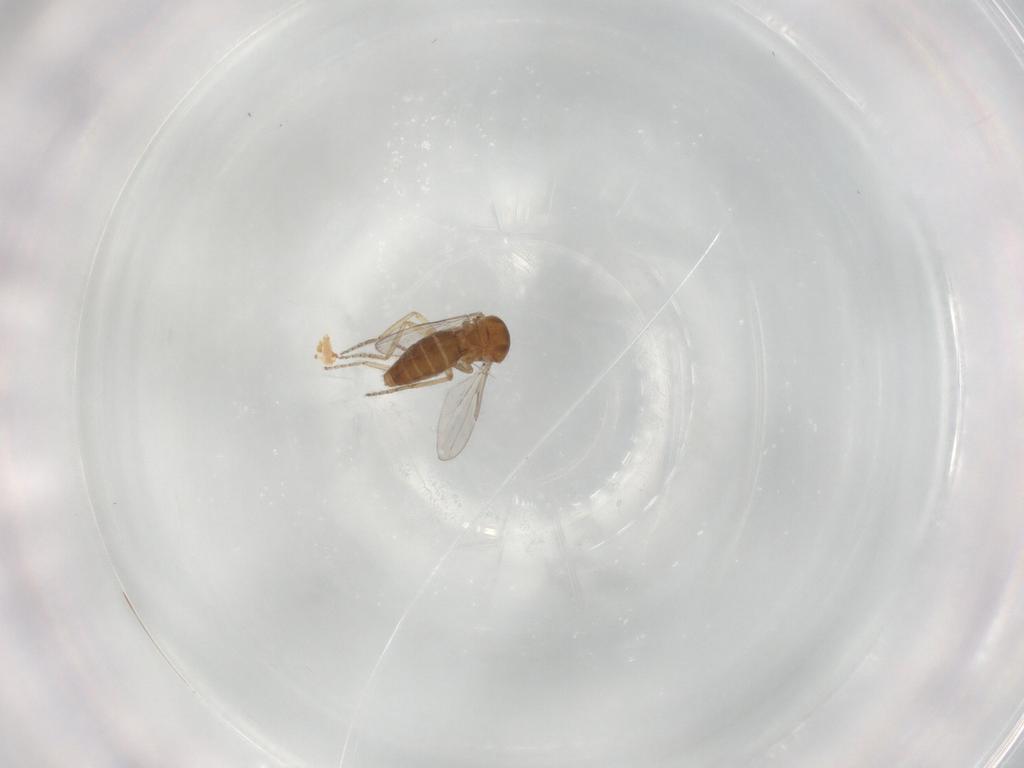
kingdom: Animalia
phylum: Arthropoda
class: Insecta
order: Diptera
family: Ceratopogonidae
